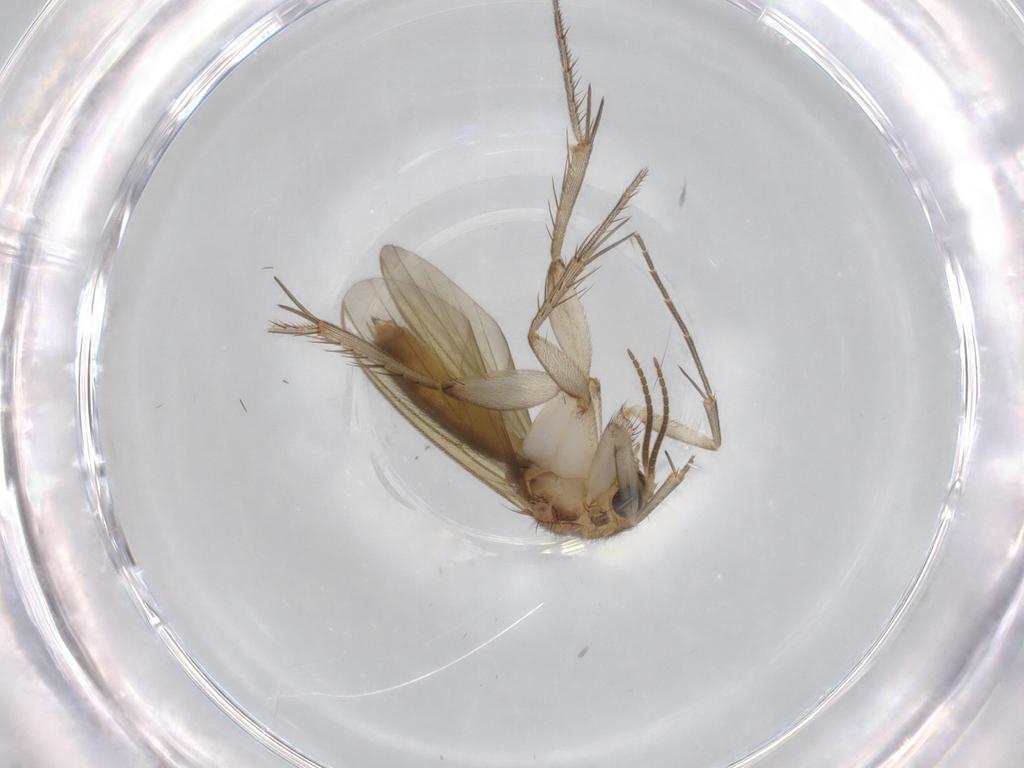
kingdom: Animalia
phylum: Arthropoda
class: Insecta
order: Diptera
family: Mycetophilidae
